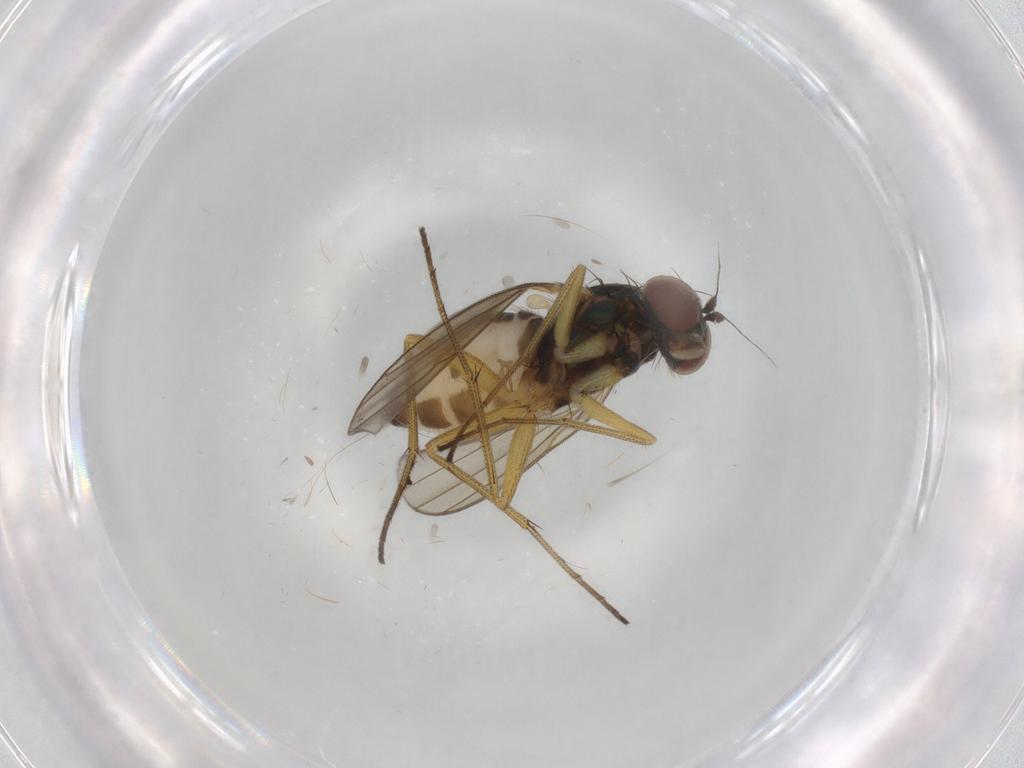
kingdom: Animalia
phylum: Arthropoda
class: Insecta
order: Diptera
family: Dolichopodidae
